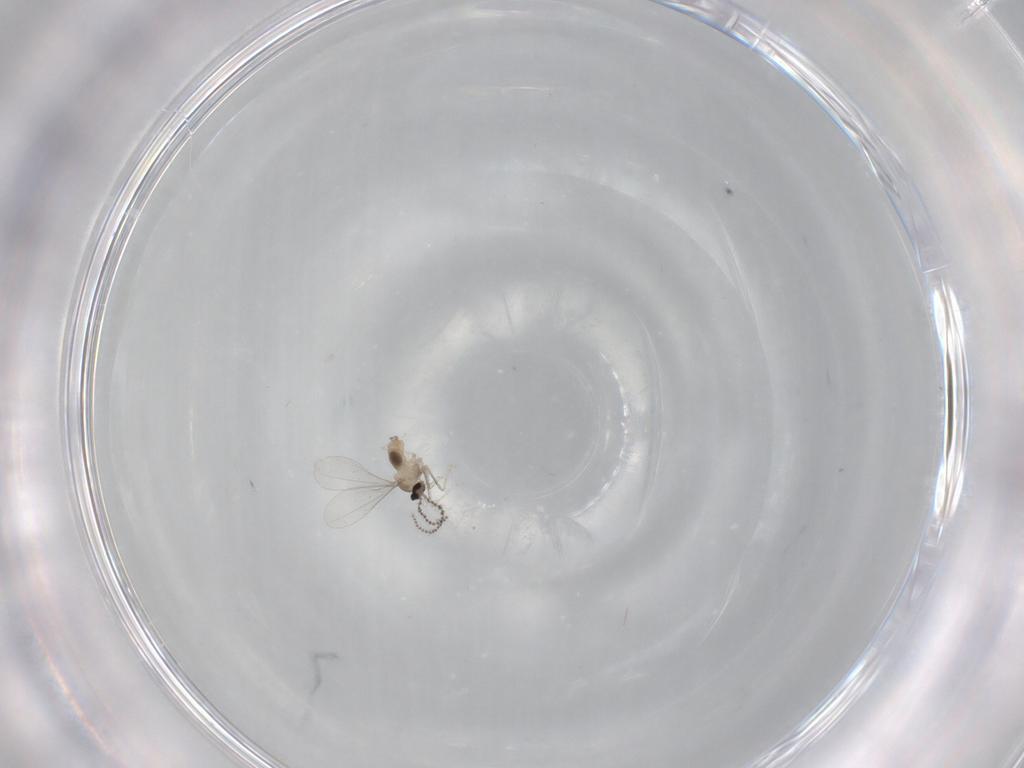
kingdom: Animalia
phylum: Arthropoda
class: Insecta
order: Diptera
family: Cecidomyiidae
